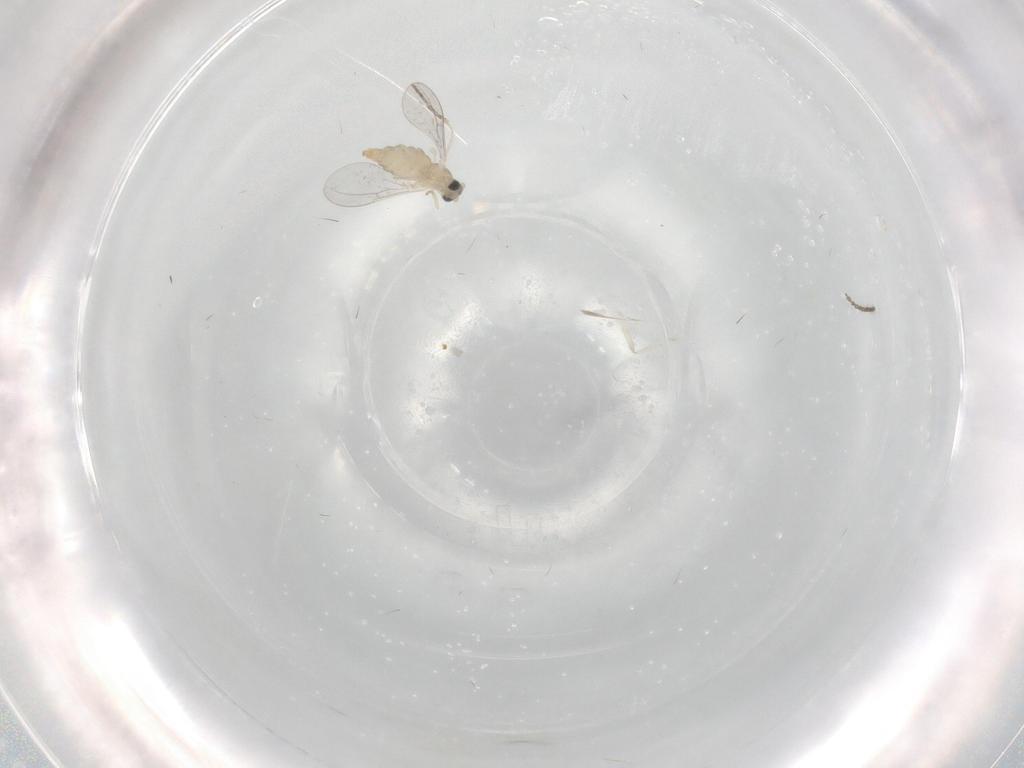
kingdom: Animalia
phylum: Arthropoda
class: Insecta
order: Diptera
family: Cecidomyiidae
